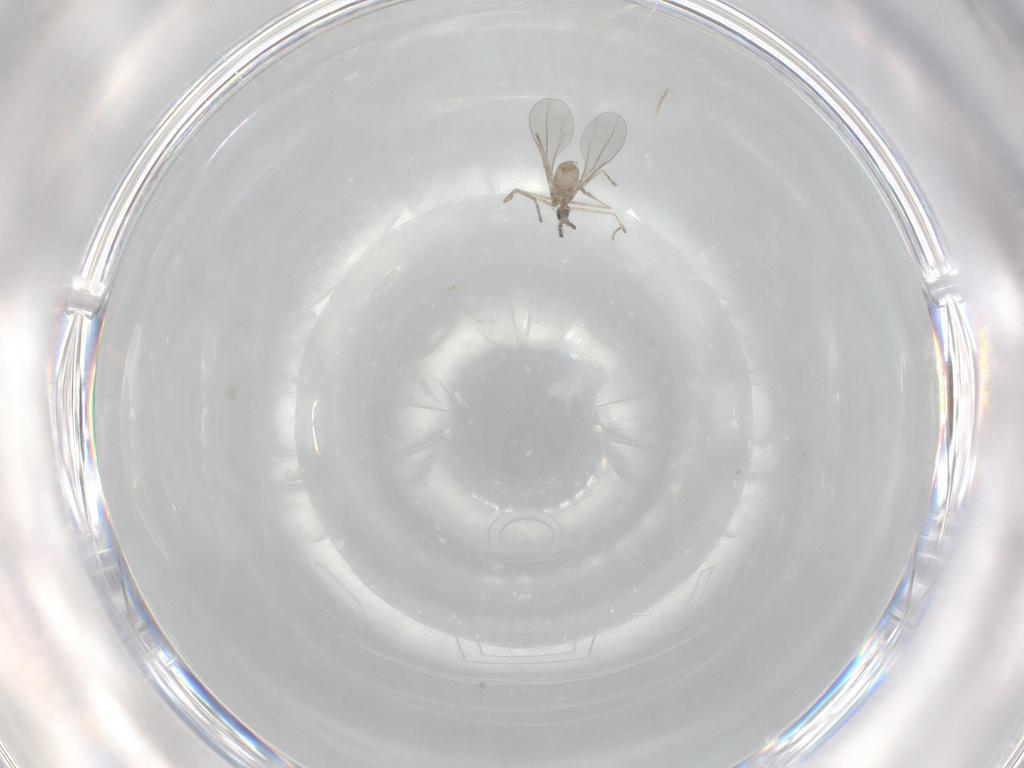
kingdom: Animalia
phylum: Arthropoda
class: Insecta
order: Diptera
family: Cecidomyiidae
